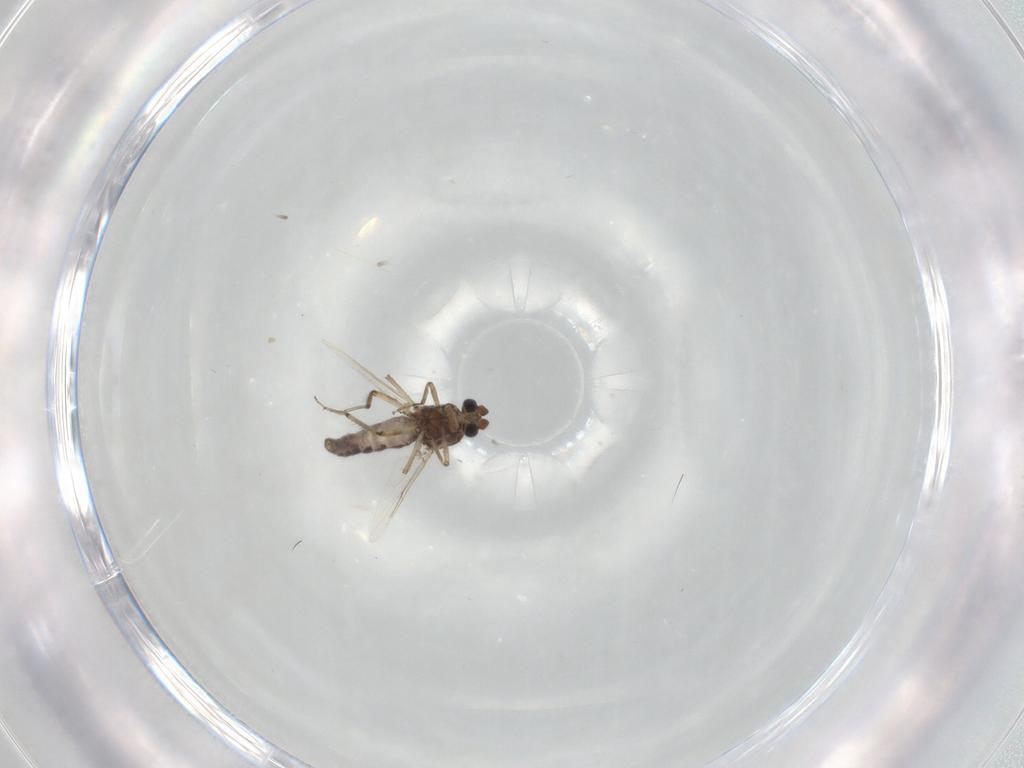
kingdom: Animalia
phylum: Arthropoda
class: Insecta
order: Diptera
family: Ceratopogonidae
